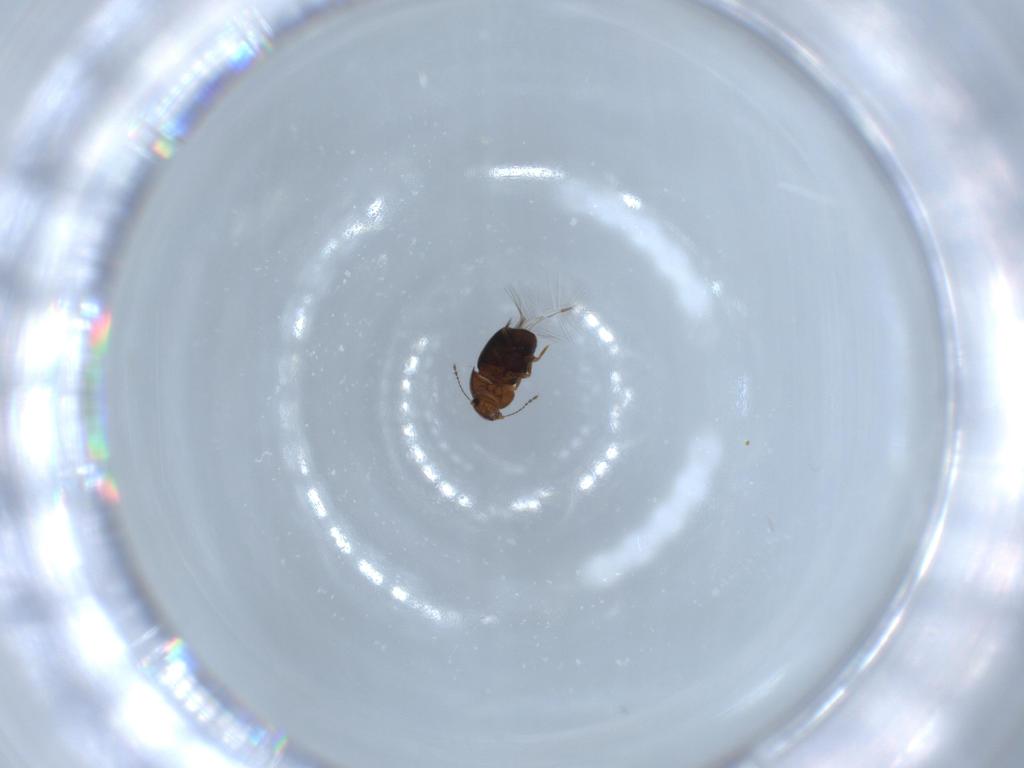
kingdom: Animalia
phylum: Arthropoda
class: Insecta
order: Coleoptera
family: Ptiliidae
